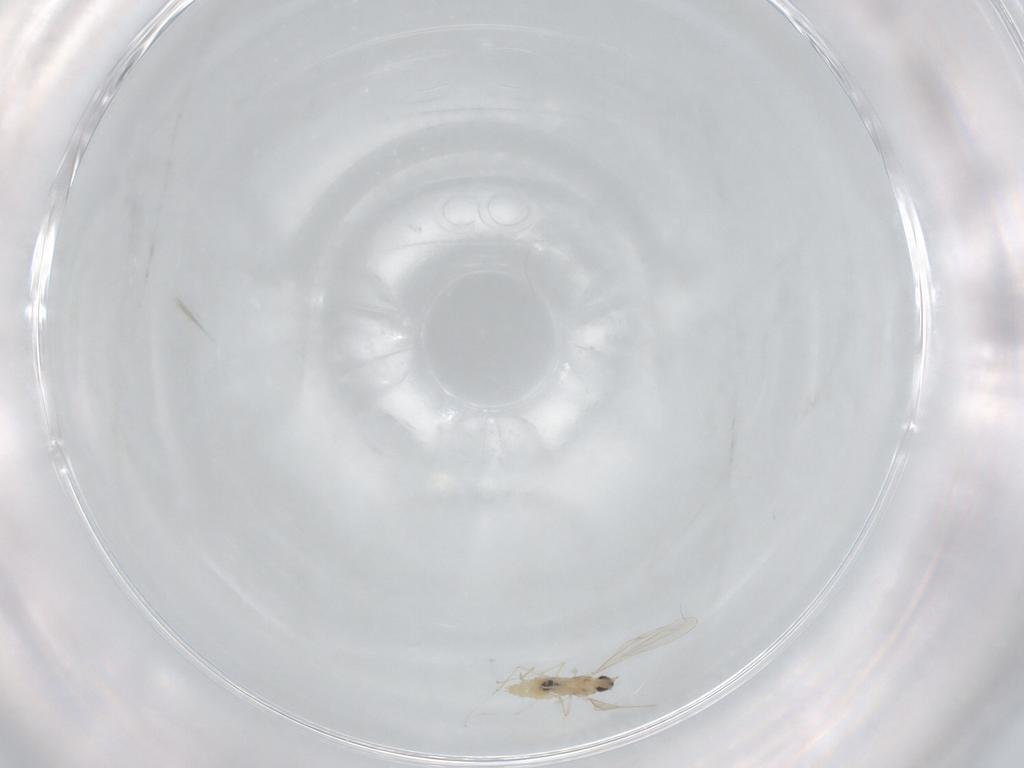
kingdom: Animalia
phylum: Arthropoda
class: Insecta
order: Diptera
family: Sciaridae
